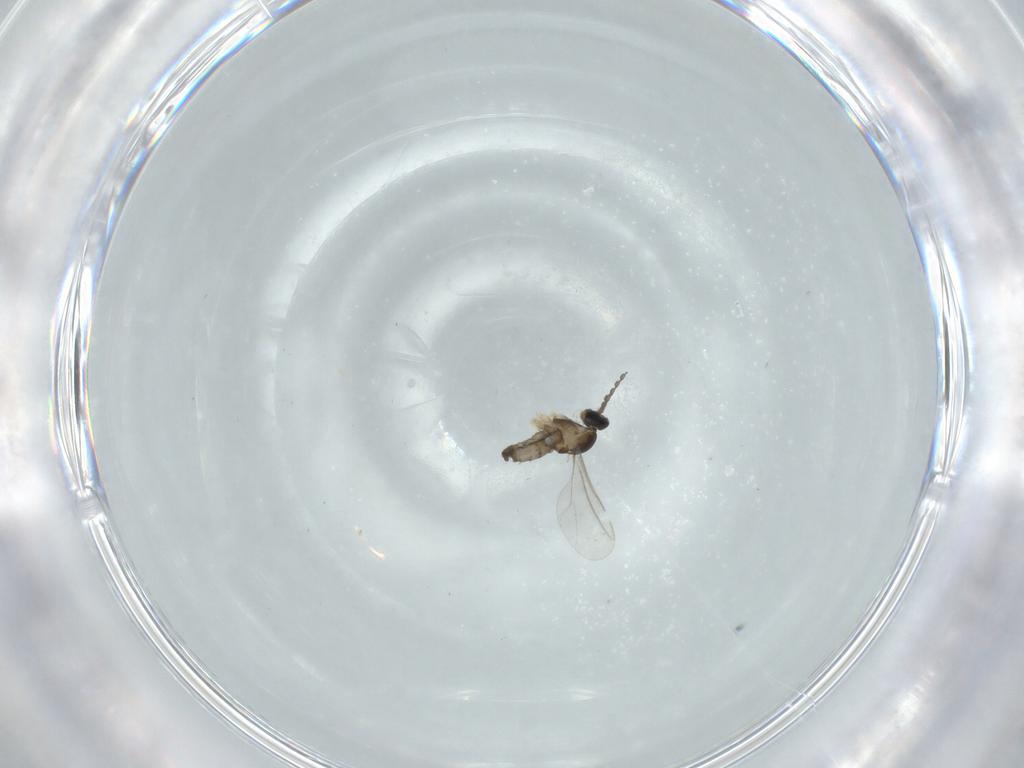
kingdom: Animalia
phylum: Arthropoda
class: Insecta
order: Diptera
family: Cecidomyiidae
